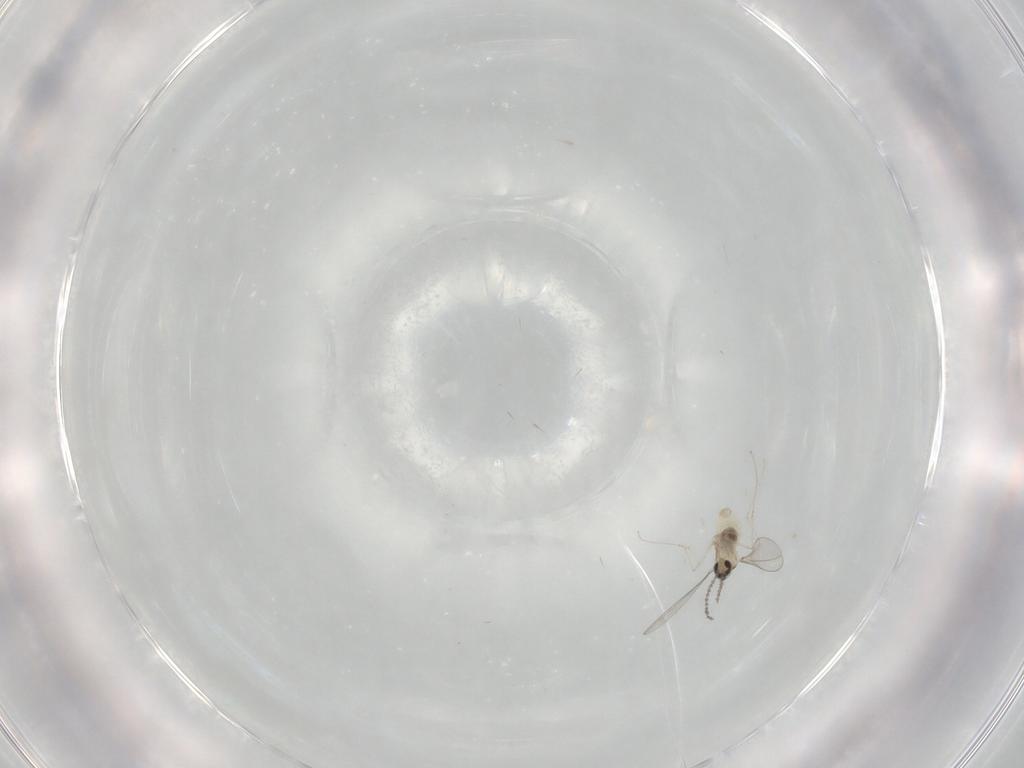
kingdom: Animalia
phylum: Arthropoda
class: Insecta
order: Diptera
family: Cecidomyiidae
